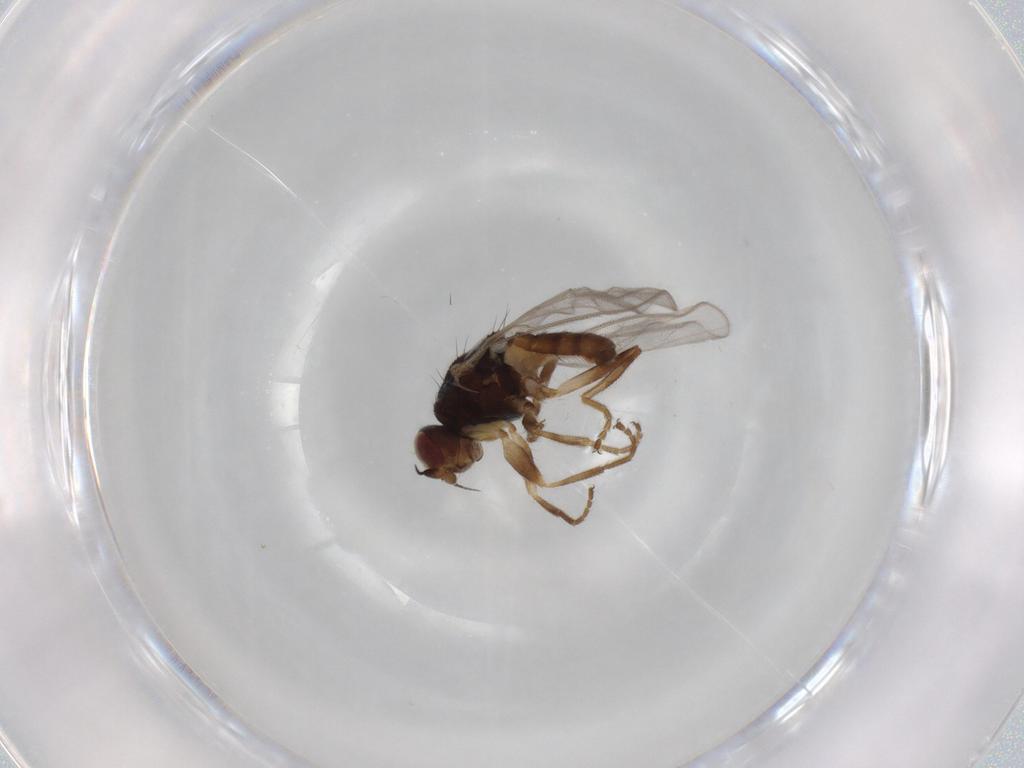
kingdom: Animalia
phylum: Arthropoda
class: Insecta
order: Diptera
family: Chloropidae
